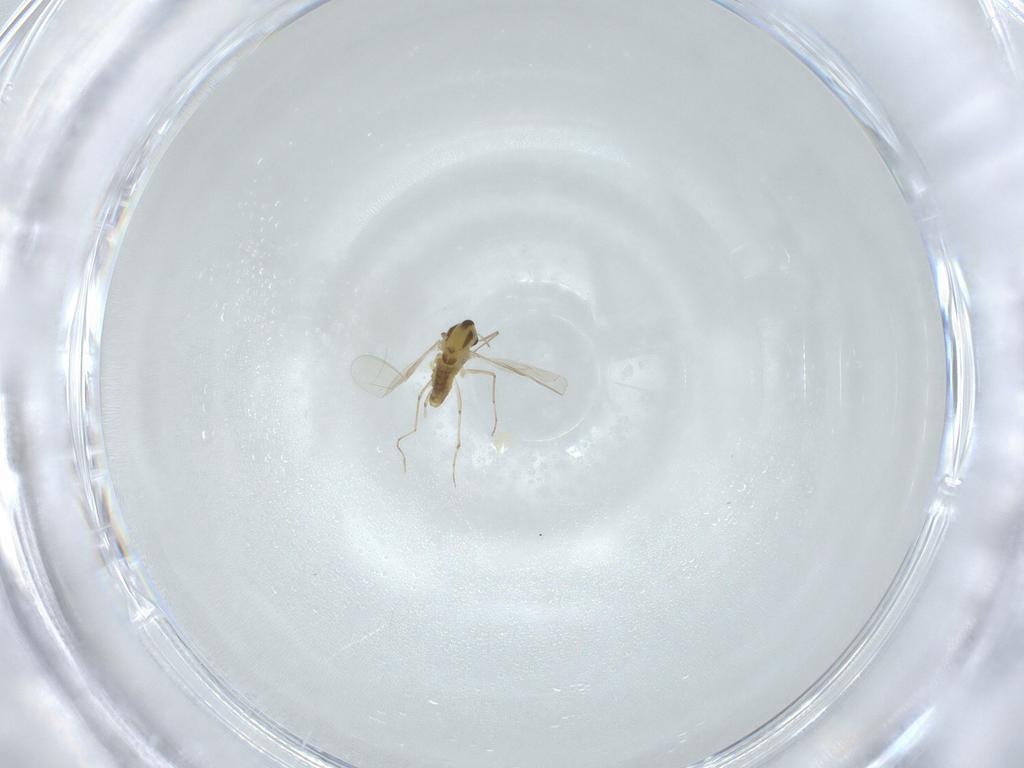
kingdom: Animalia
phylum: Arthropoda
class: Insecta
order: Diptera
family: Chironomidae
